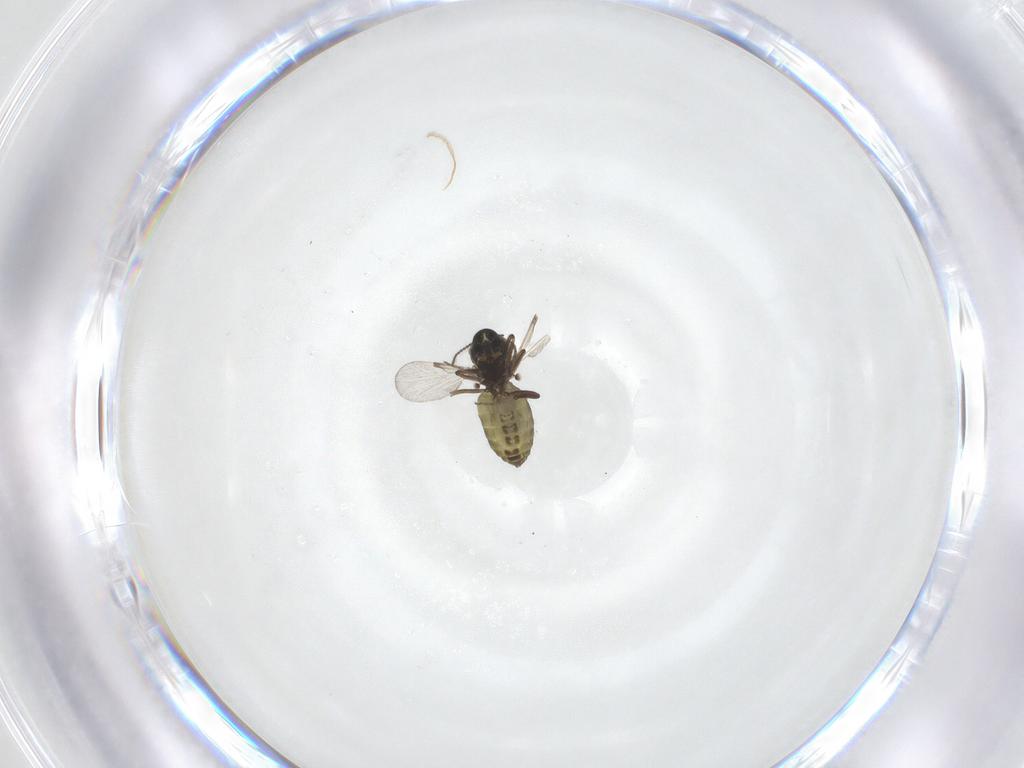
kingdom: Animalia
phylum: Arthropoda
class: Insecta
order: Diptera
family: Ceratopogonidae
